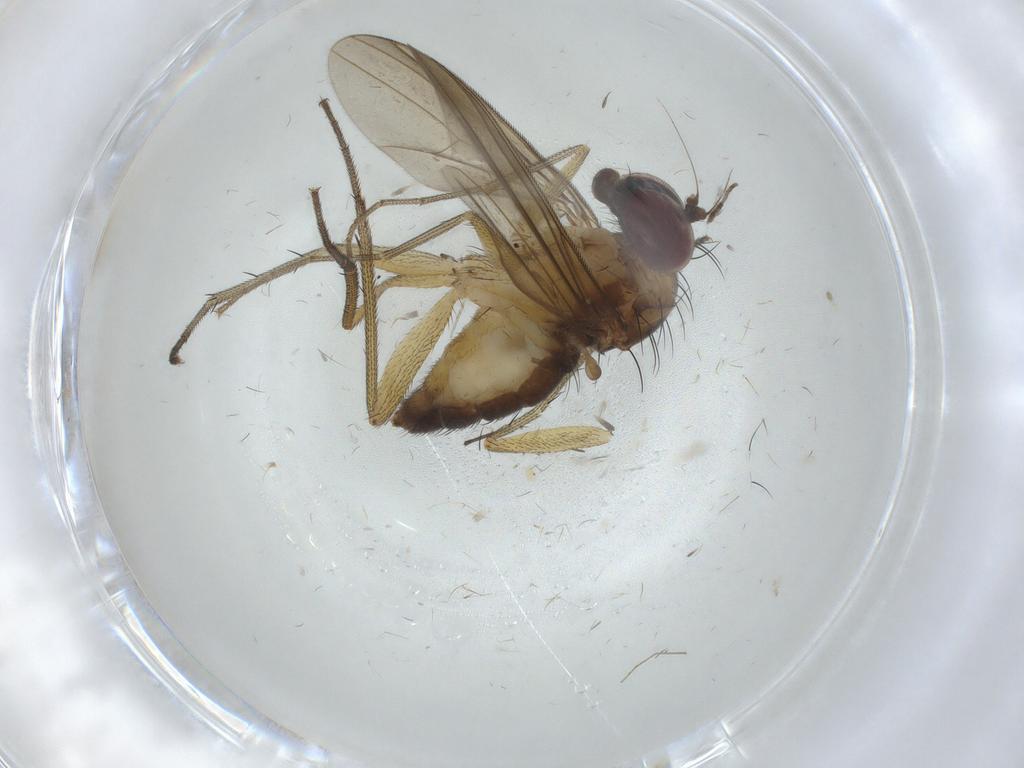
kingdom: Animalia
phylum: Arthropoda
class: Insecta
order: Diptera
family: Dolichopodidae
